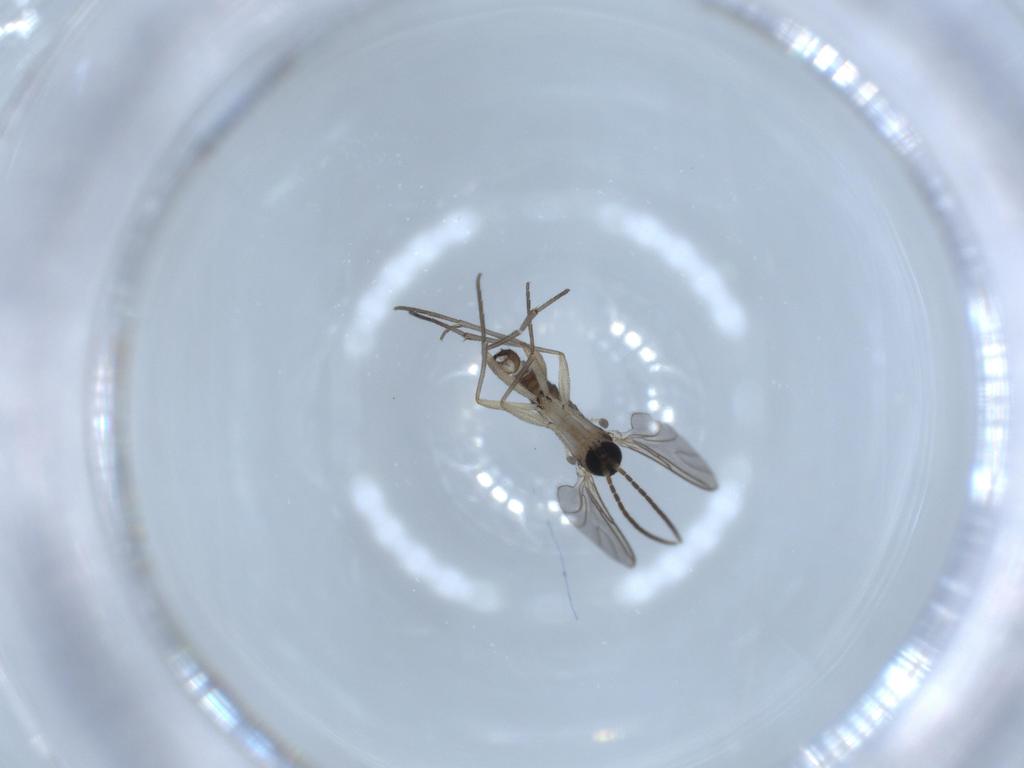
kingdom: Animalia
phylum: Arthropoda
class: Insecta
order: Diptera
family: Sciaridae
